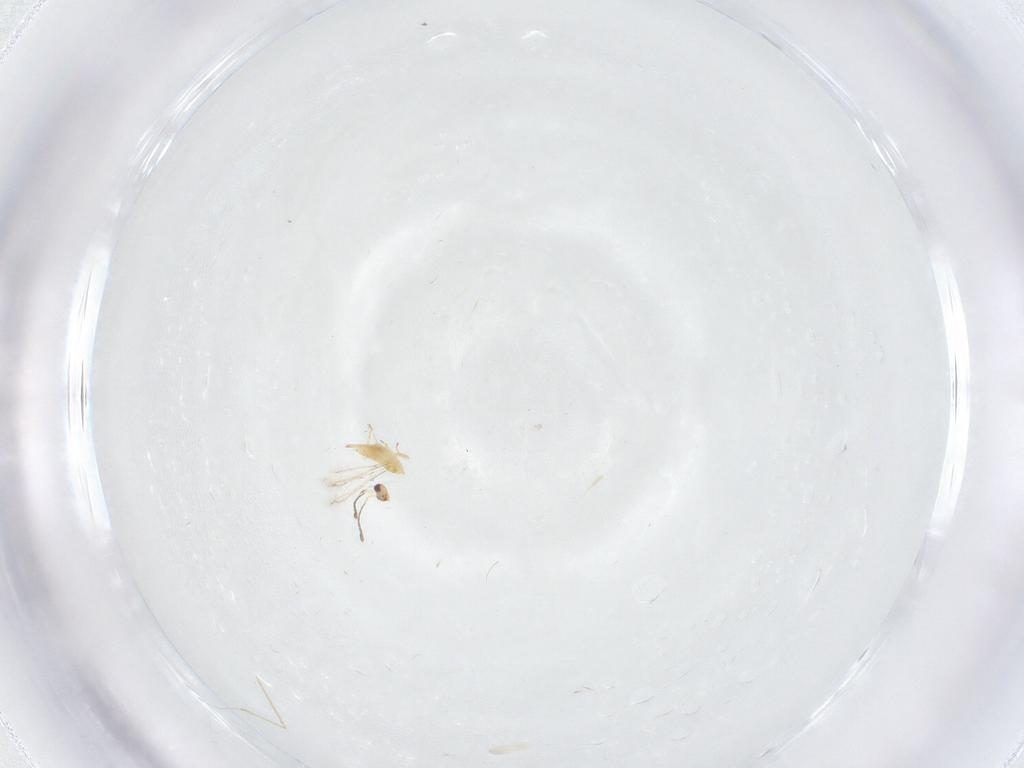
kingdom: Animalia
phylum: Arthropoda
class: Insecta
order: Hymenoptera
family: Mymaridae
